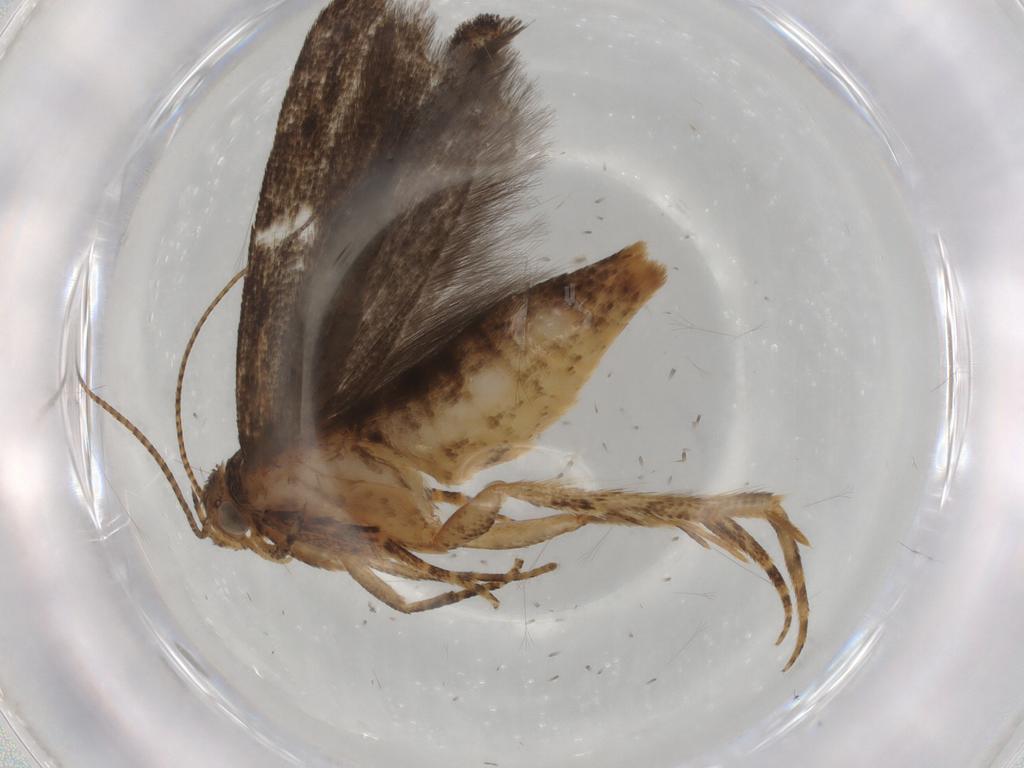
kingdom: Animalia
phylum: Arthropoda
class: Insecta
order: Lepidoptera
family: Gelechiidae
